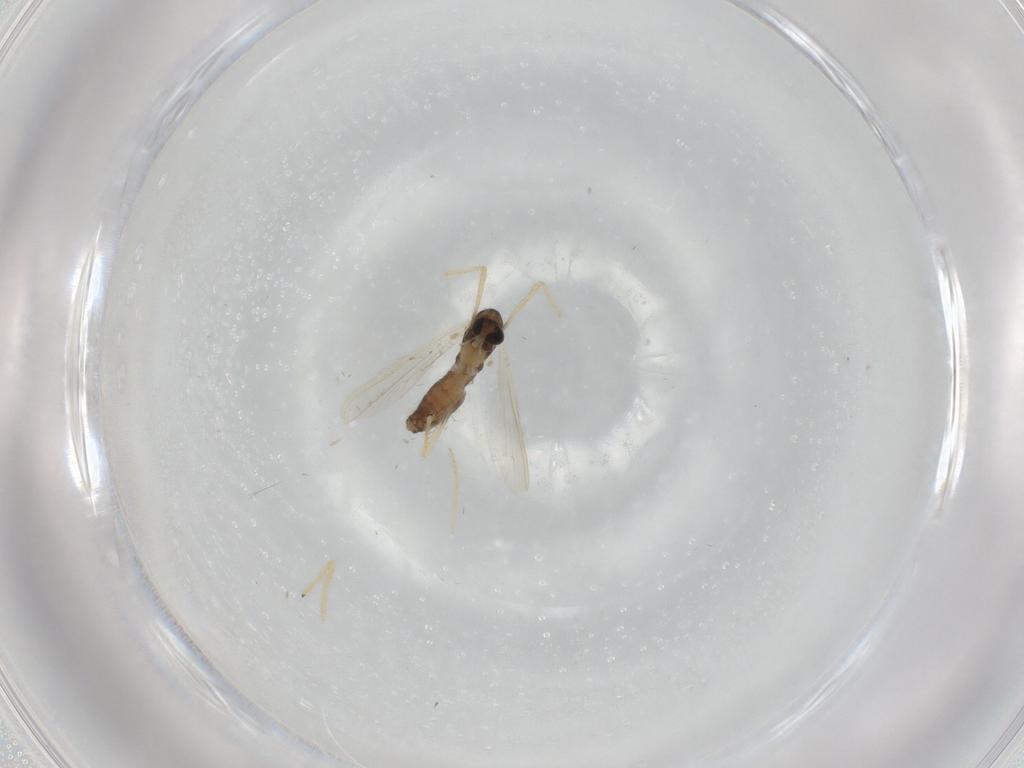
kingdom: Animalia
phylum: Arthropoda
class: Insecta
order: Diptera
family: Chironomidae
